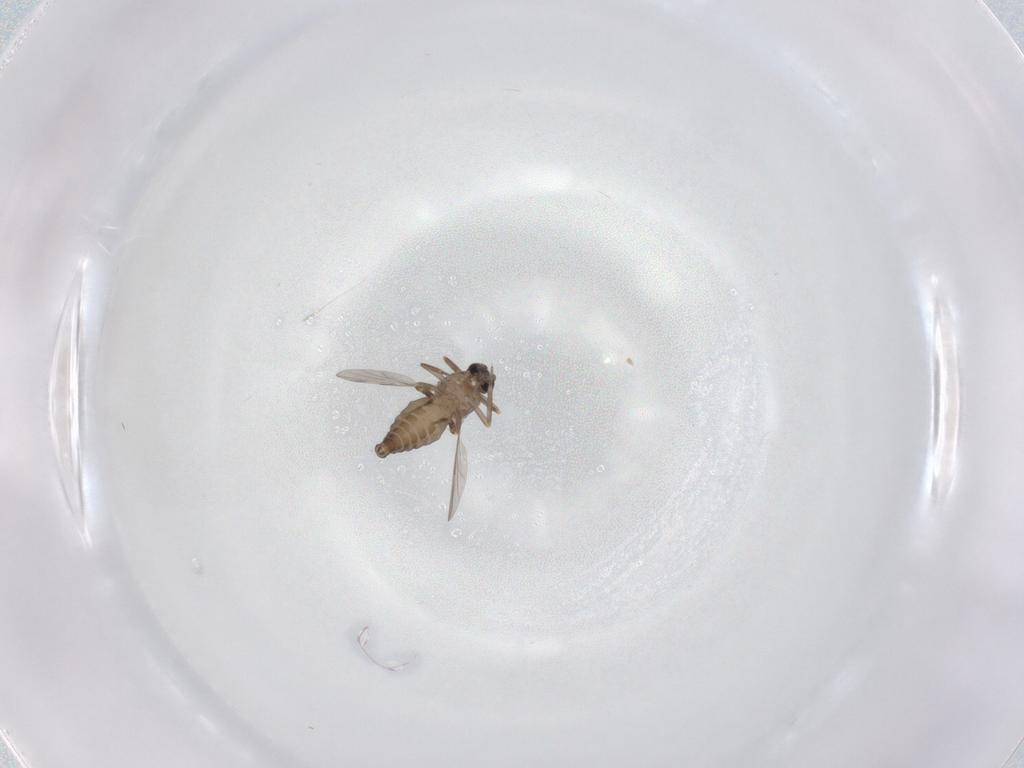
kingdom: Animalia
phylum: Arthropoda
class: Insecta
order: Diptera
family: Ceratopogonidae
